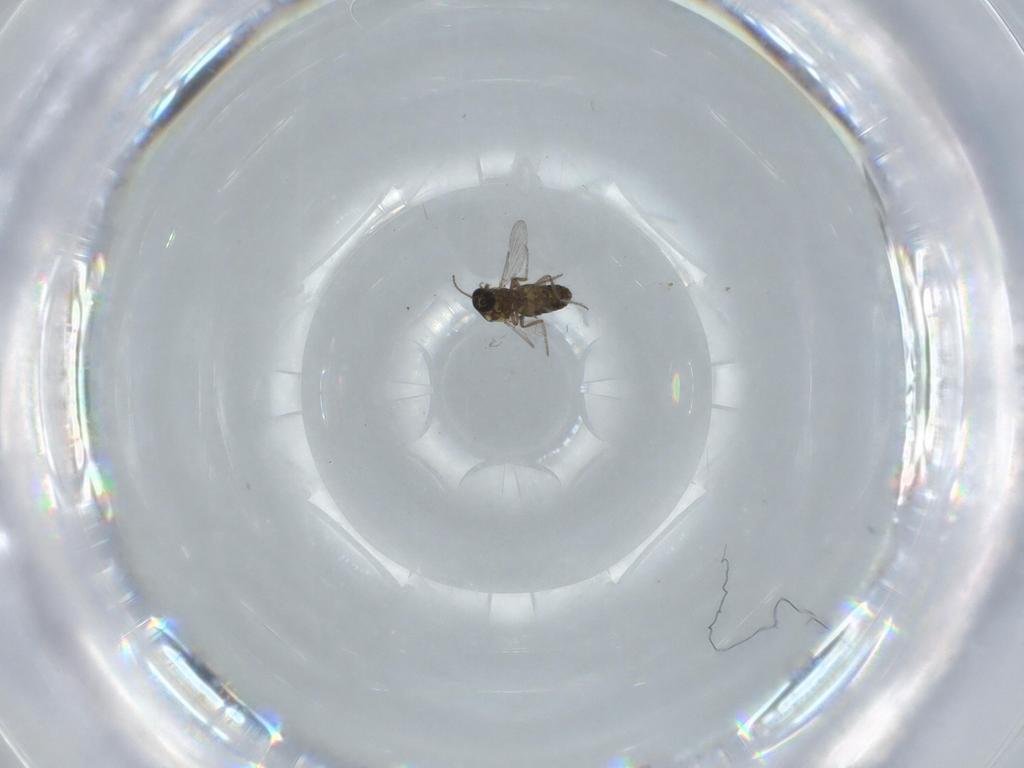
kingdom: Animalia
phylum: Arthropoda
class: Insecta
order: Diptera
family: Ceratopogonidae
